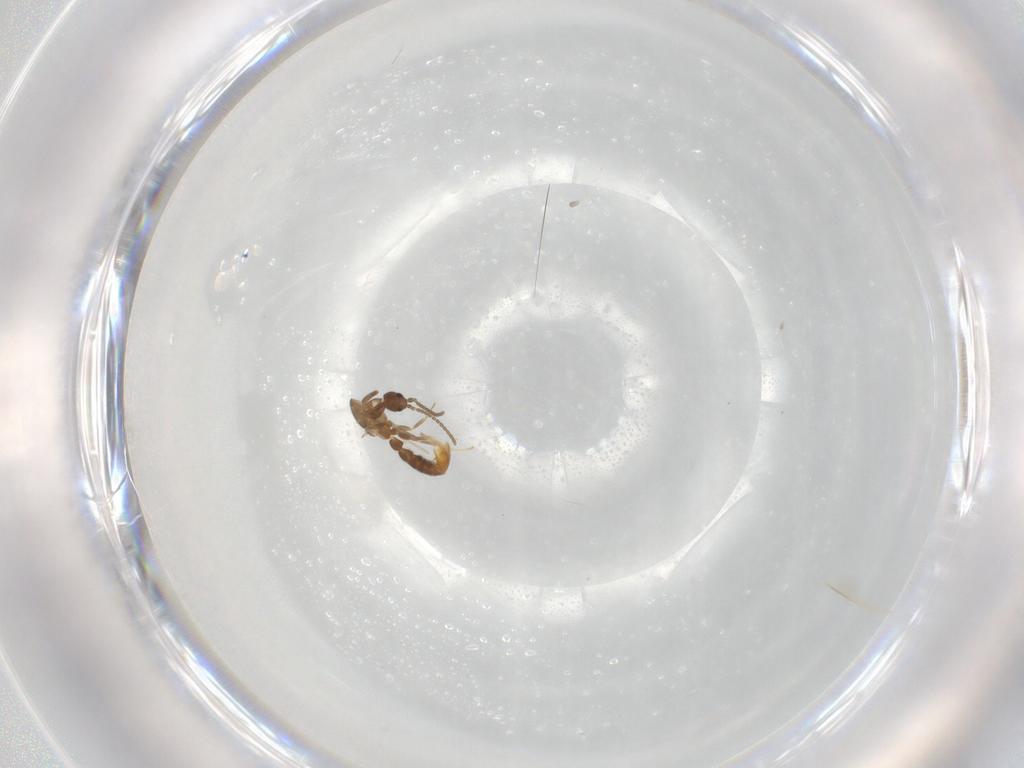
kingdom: Animalia
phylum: Arthropoda
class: Insecta
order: Hymenoptera
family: Formicidae
